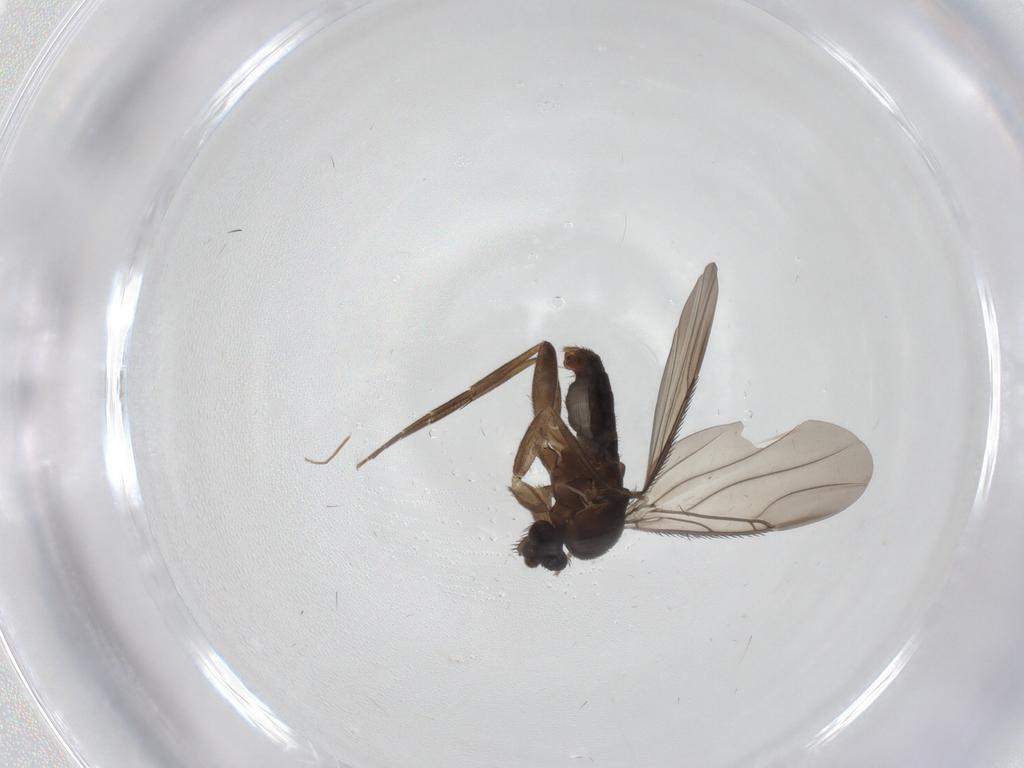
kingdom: Animalia
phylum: Arthropoda
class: Insecta
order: Diptera
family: Phoridae
